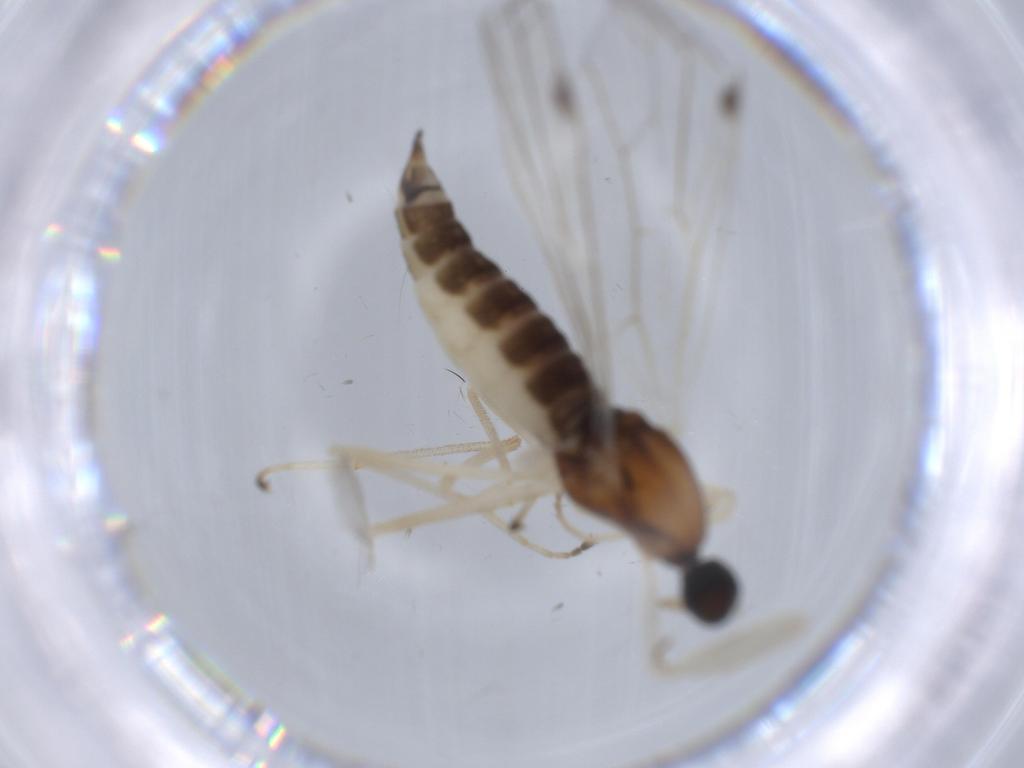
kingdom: Animalia
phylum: Arthropoda
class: Insecta
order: Diptera
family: Empididae
